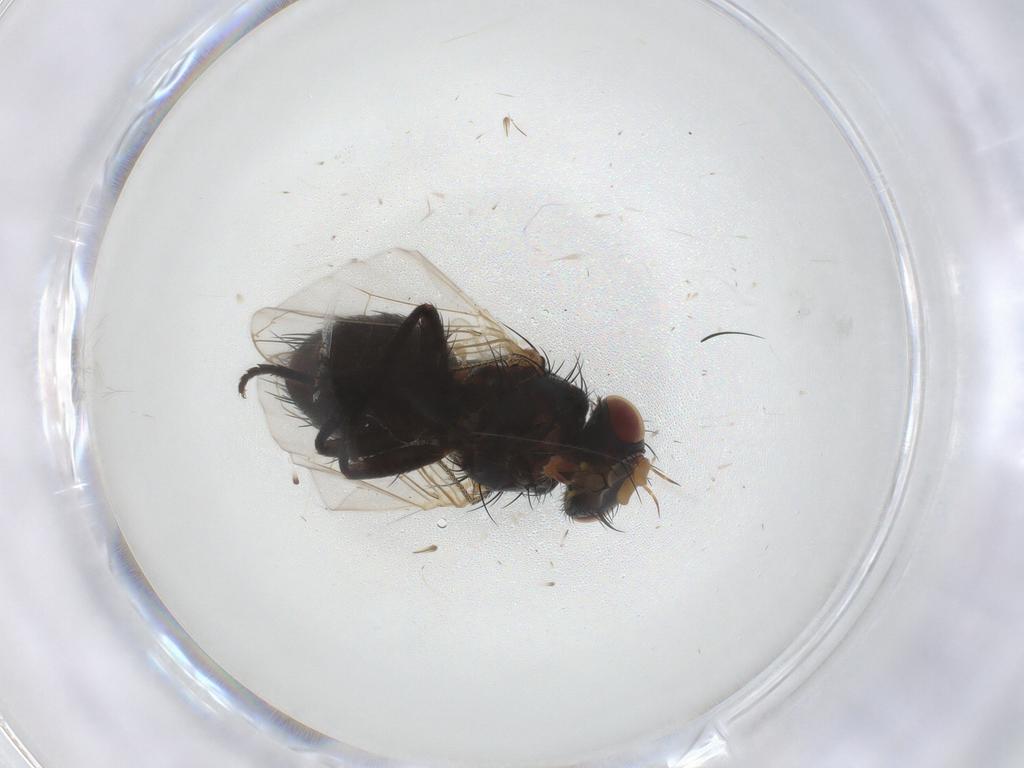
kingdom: Animalia
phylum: Arthropoda
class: Insecta
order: Diptera
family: Tachinidae
